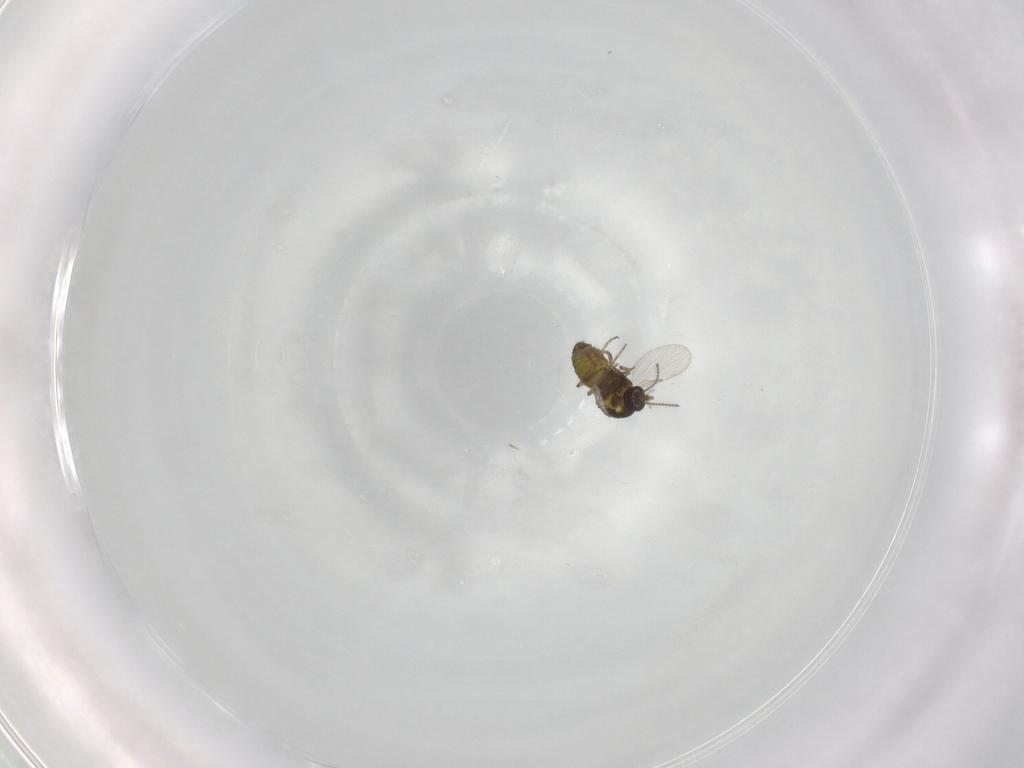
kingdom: Animalia
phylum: Arthropoda
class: Insecta
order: Diptera
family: Ceratopogonidae
